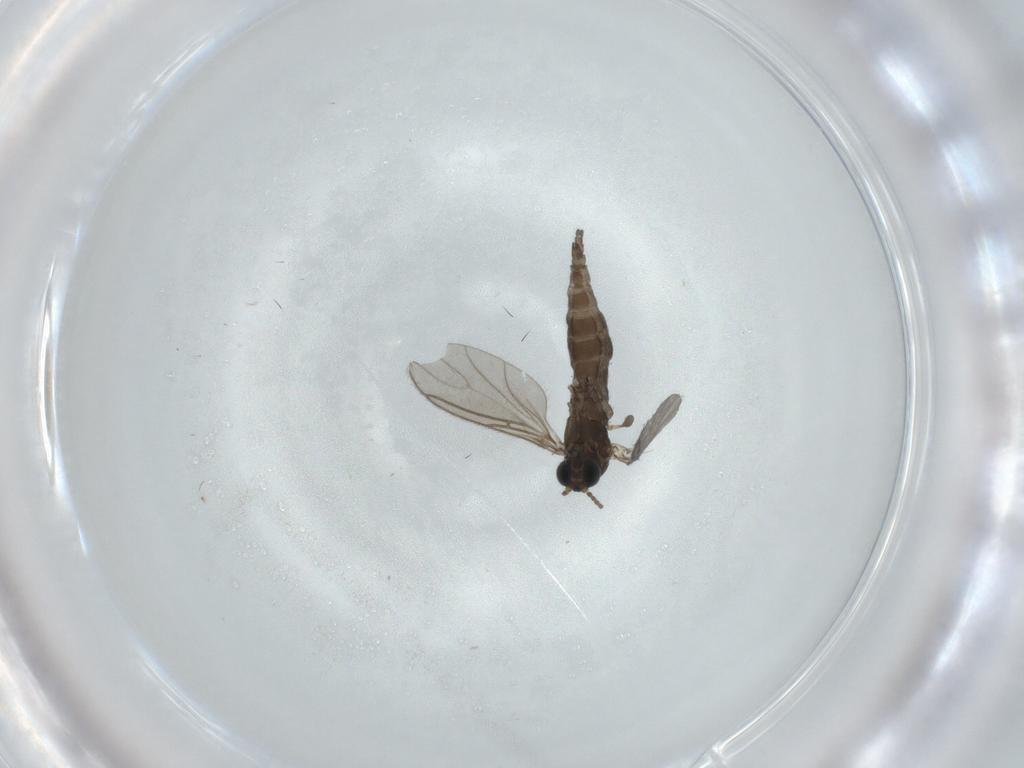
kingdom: Animalia
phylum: Arthropoda
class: Insecta
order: Diptera
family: Sciaridae
